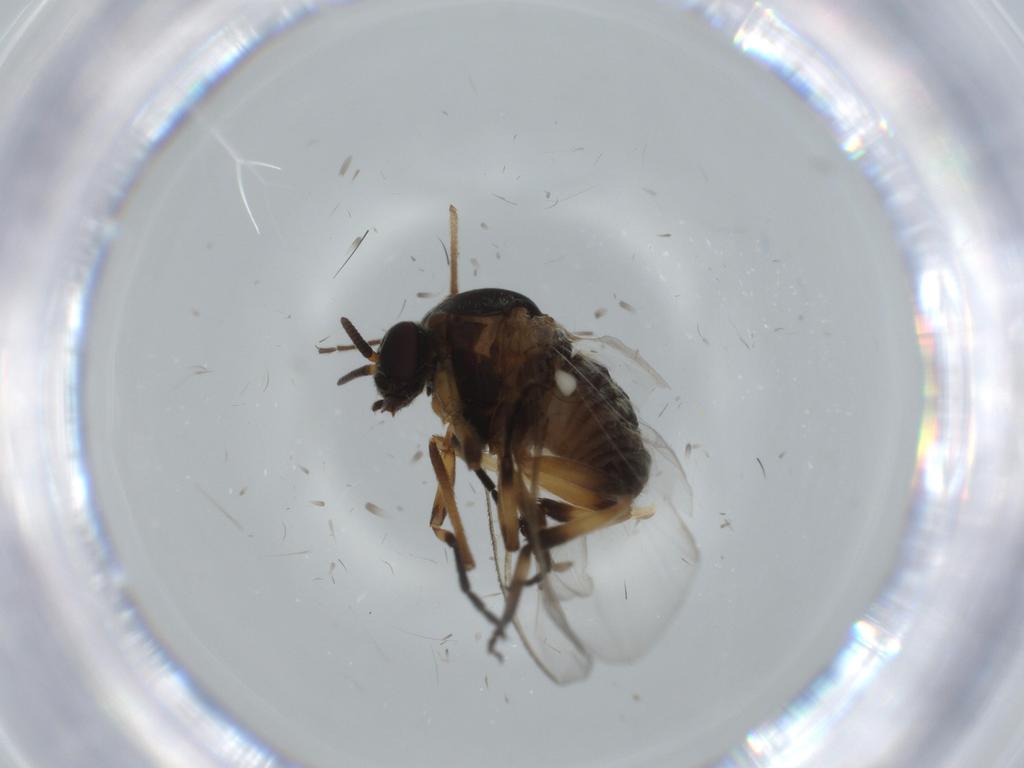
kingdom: Animalia
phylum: Arthropoda
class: Insecta
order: Diptera
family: Simuliidae
